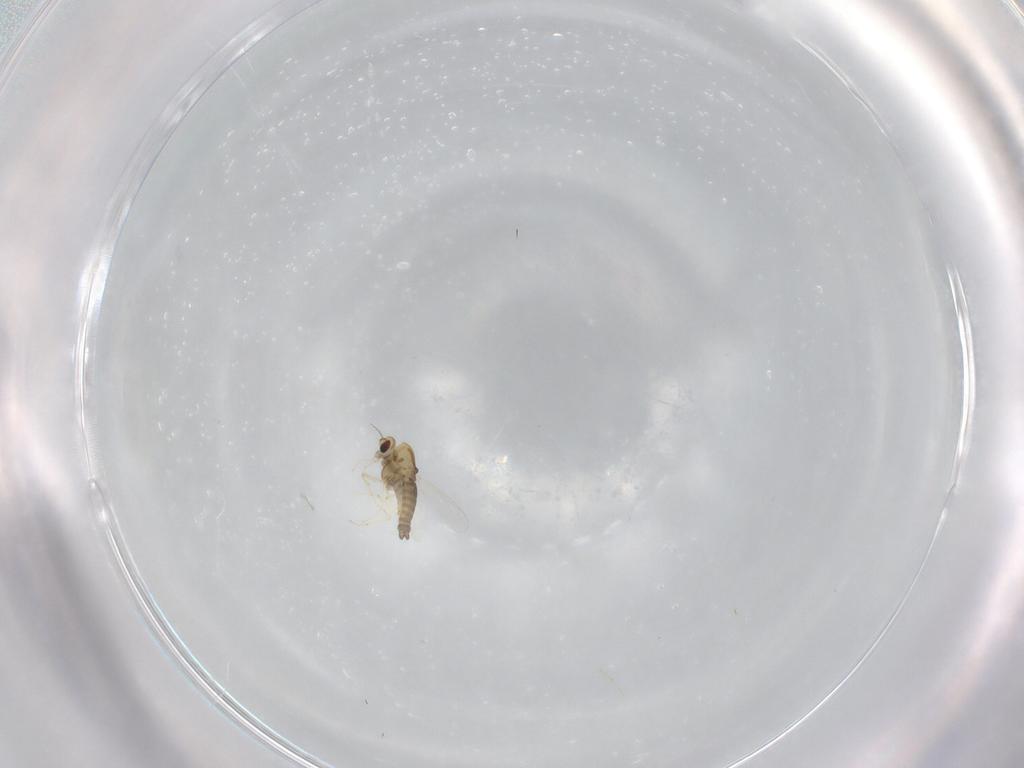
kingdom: Animalia
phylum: Arthropoda
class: Insecta
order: Diptera
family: Chironomidae
